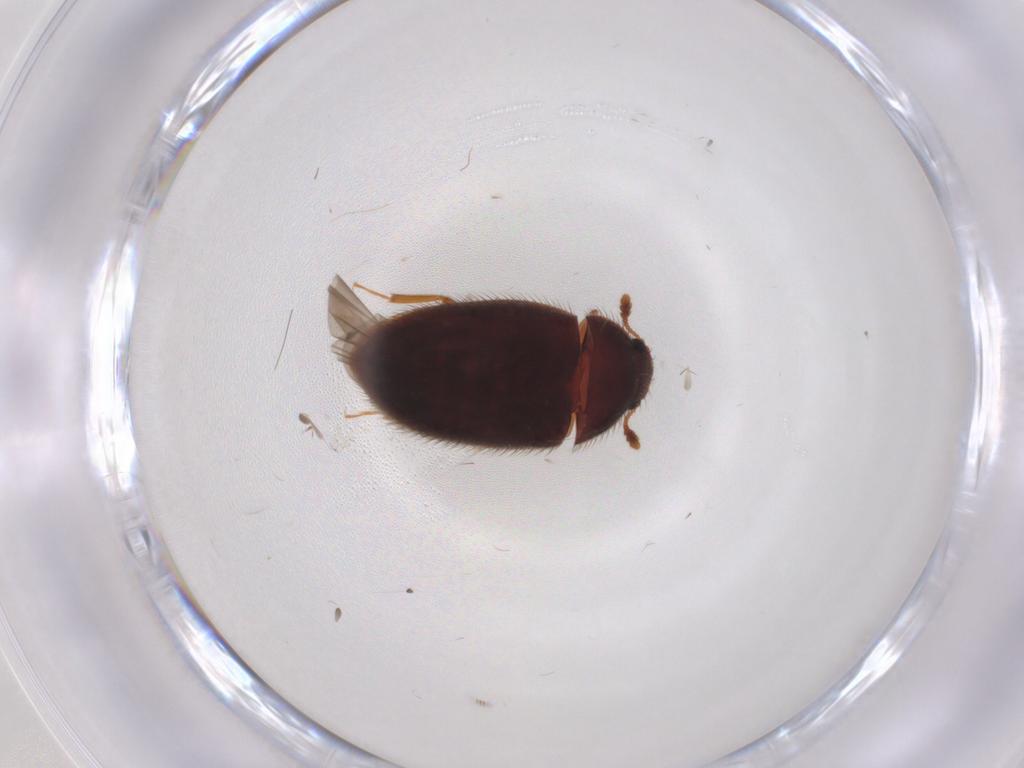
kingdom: Animalia
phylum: Arthropoda
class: Insecta
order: Coleoptera
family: Biphyllidae
